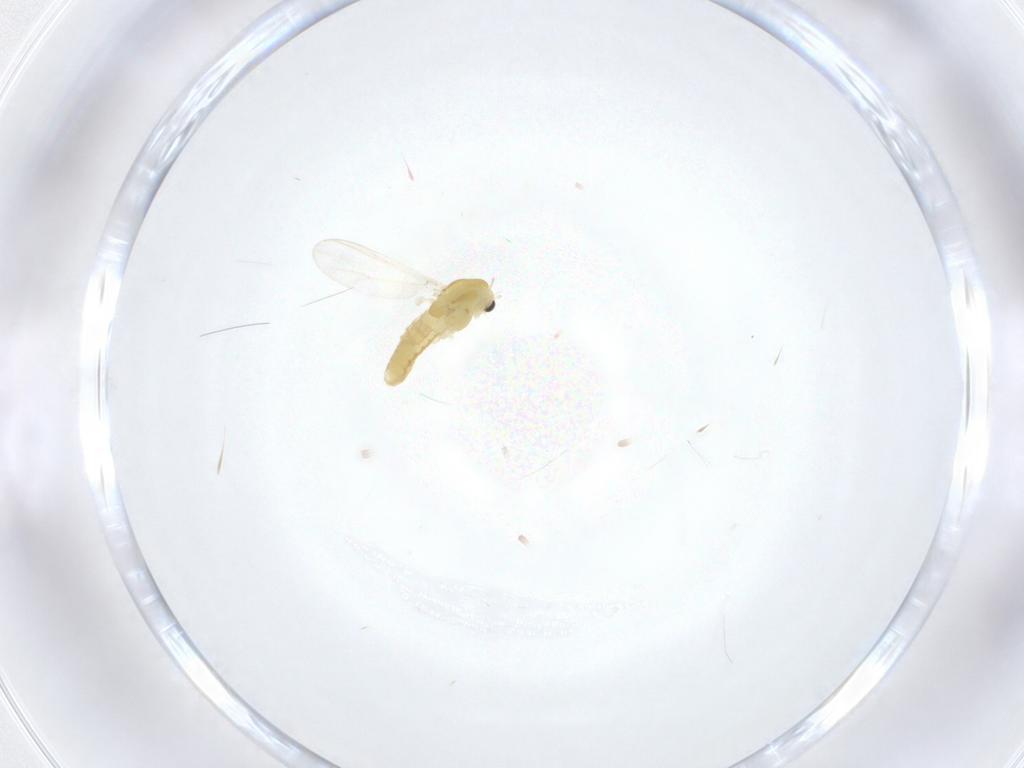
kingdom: Animalia
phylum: Arthropoda
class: Insecta
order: Diptera
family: Chironomidae
